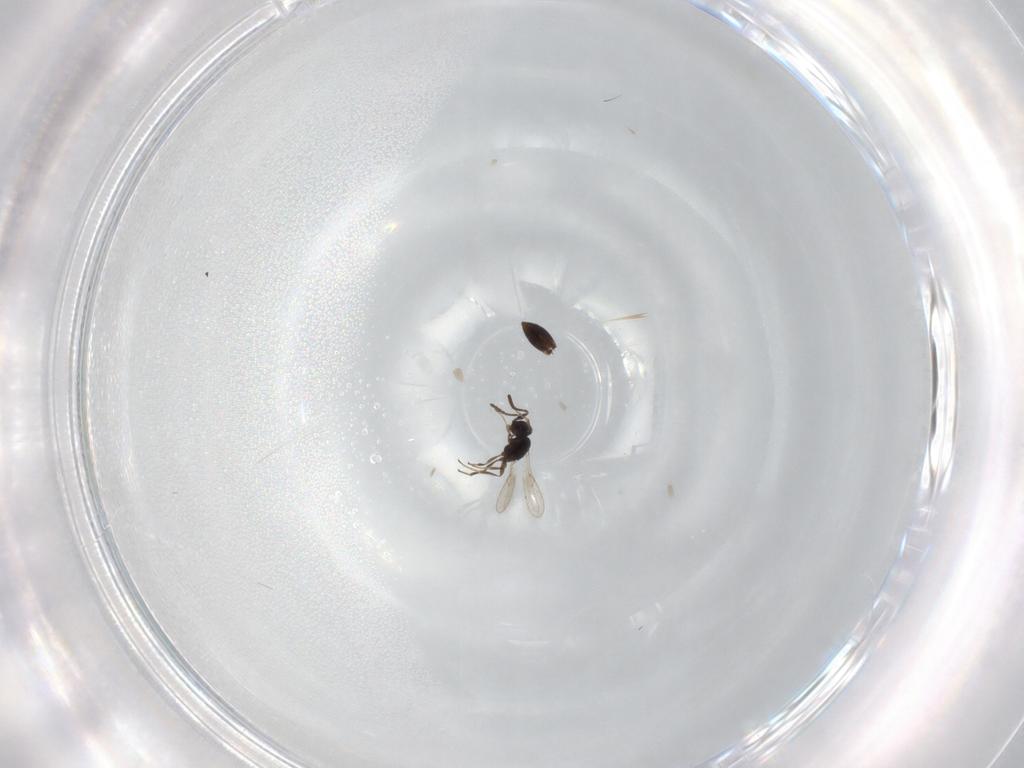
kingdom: Animalia
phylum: Arthropoda
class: Insecta
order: Hymenoptera
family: Scelionidae
